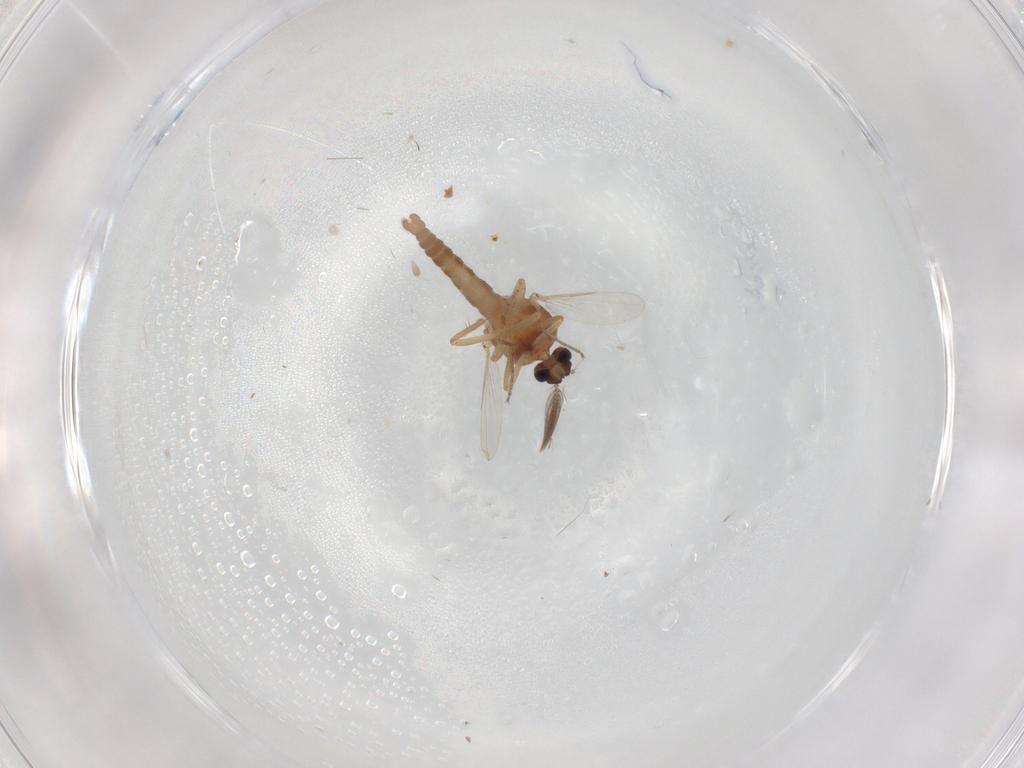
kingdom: Animalia
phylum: Arthropoda
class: Insecta
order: Diptera
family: Ceratopogonidae
